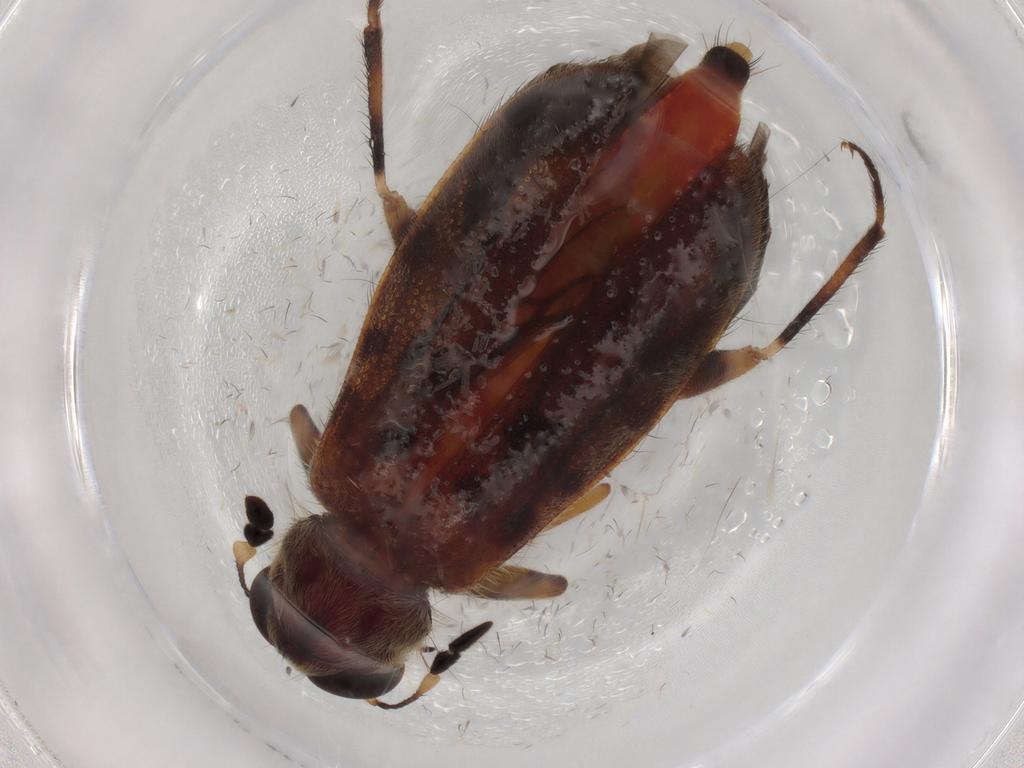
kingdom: Animalia
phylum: Arthropoda
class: Insecta
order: Coleoptera
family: Cleridae
